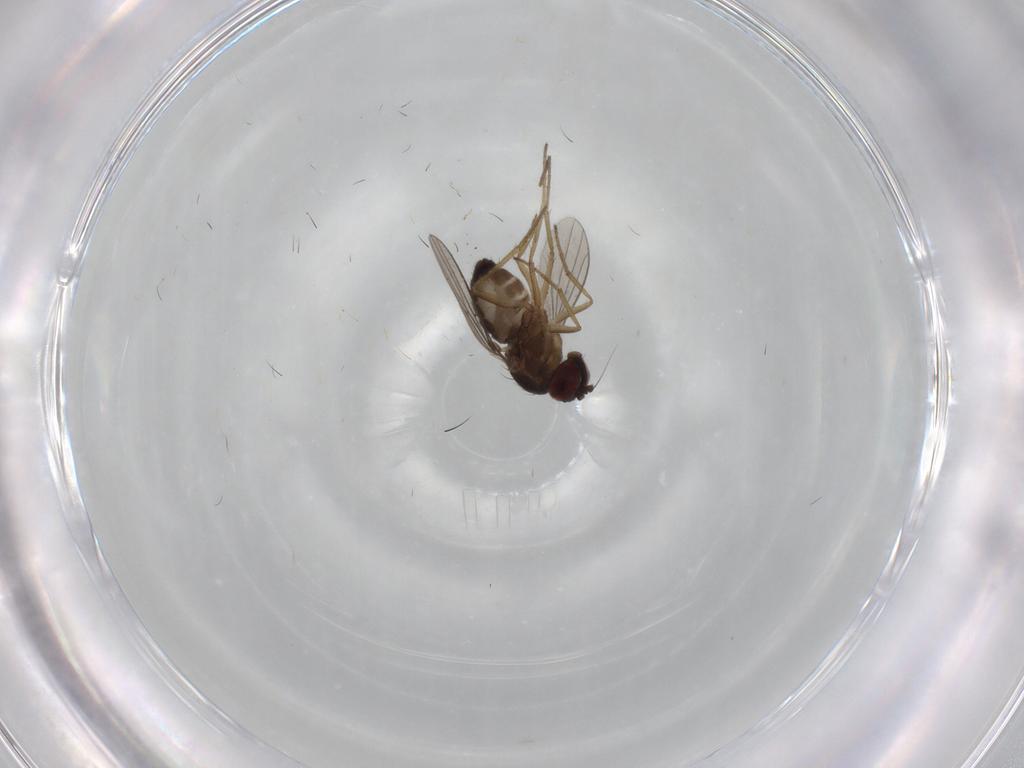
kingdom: Animalia
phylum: Arthropoda
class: Insecta
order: Diptera
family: Dolichopodidae
